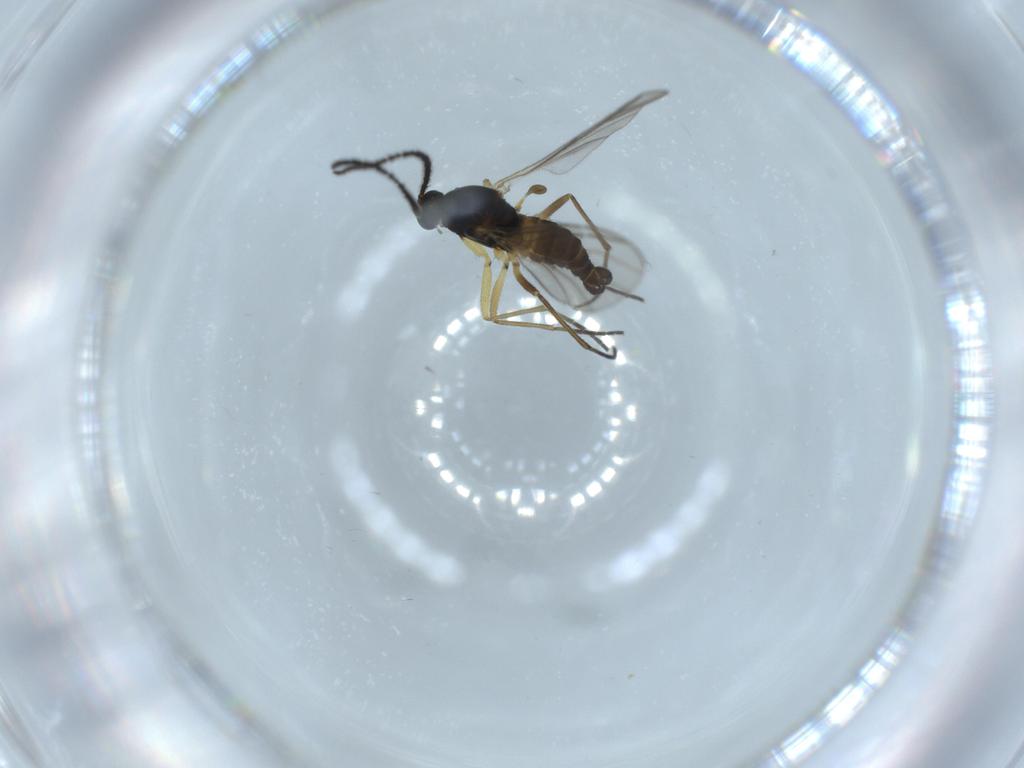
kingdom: Animalia
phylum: Arthropoda
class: Insecta
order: Diptera
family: Sciaridae
